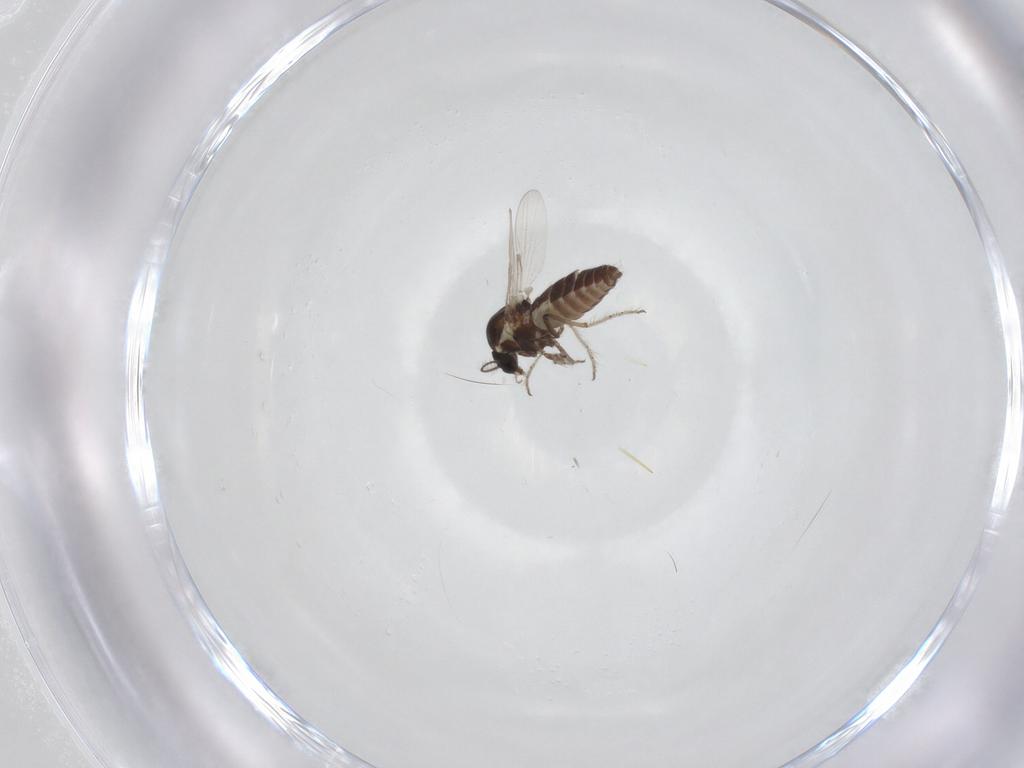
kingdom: Animalia
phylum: Arthropoda
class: Insecta
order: Diptera
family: Ceratopogonidae
